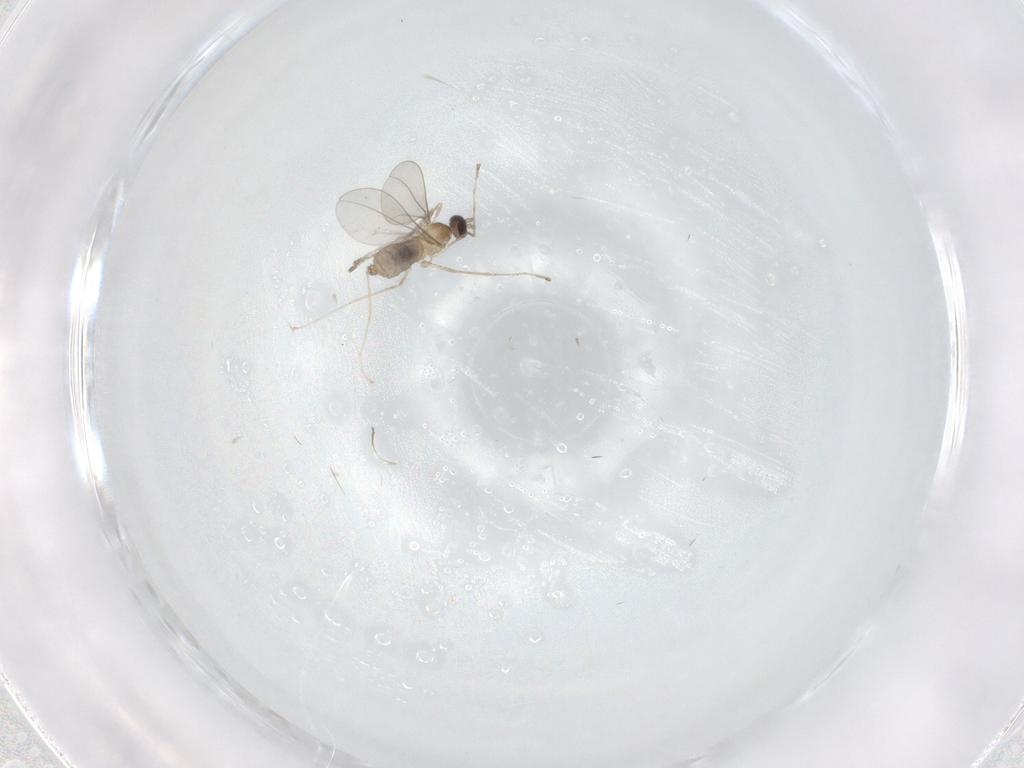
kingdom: Animalia
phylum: Arthropoda
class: Insecta
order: Diptera
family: Cecidomyiidae
